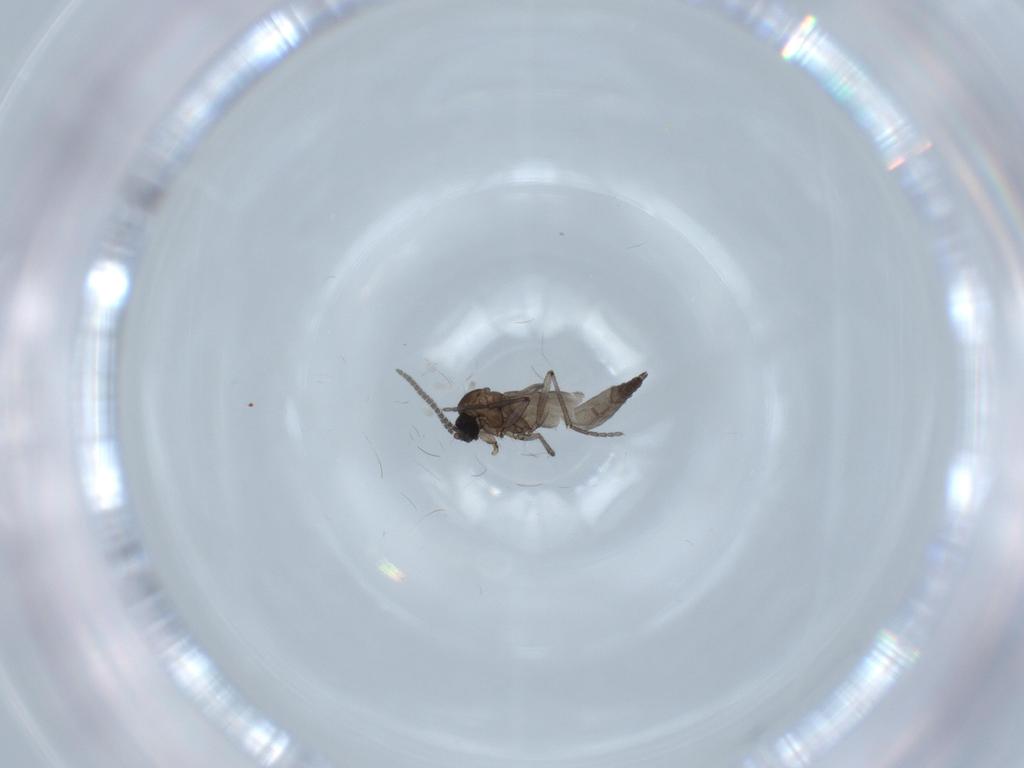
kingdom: Animalia
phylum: Arthropoda
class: Insecta
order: Diptera
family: Sciaridae
